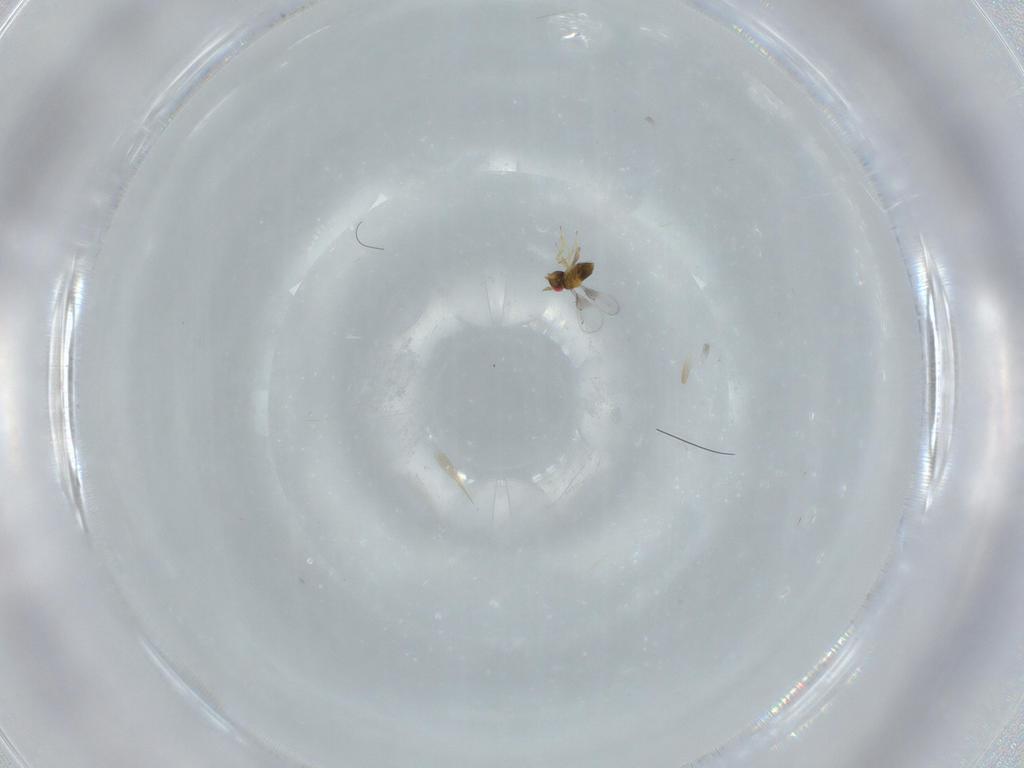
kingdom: Animalia
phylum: Arthropoda
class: Insecta
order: Hymenoptera
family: Trichogrammatidae
